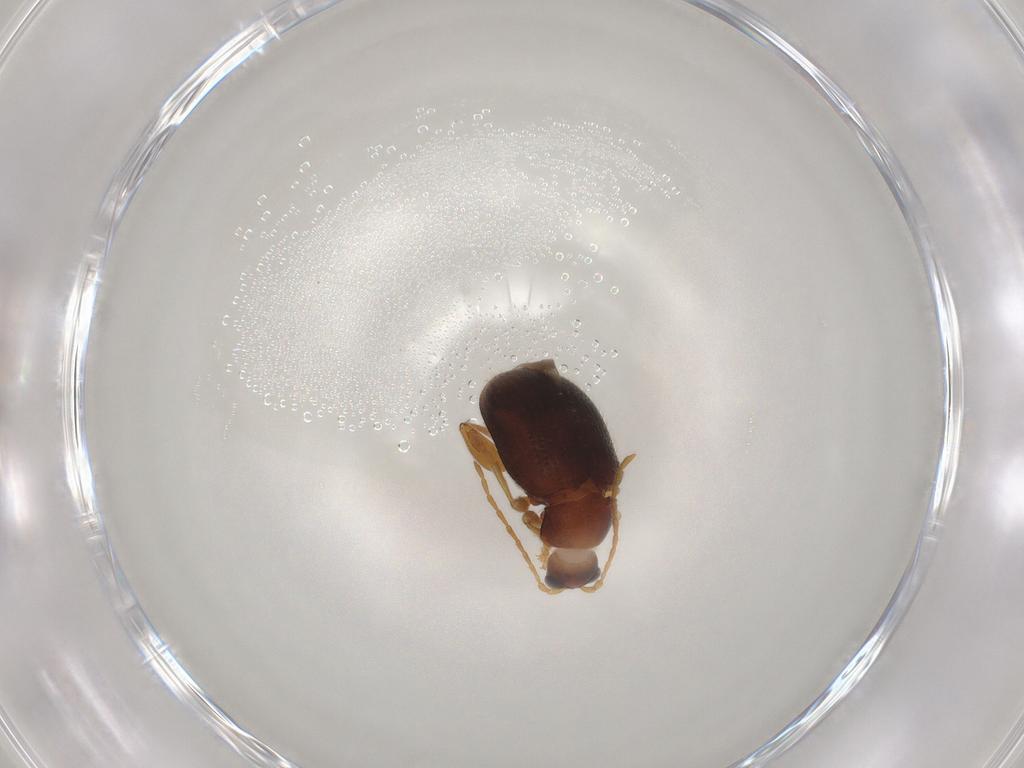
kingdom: Animalia
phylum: Arthropoda
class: Insecta
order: Coleoptera
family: Chrysomelidae
